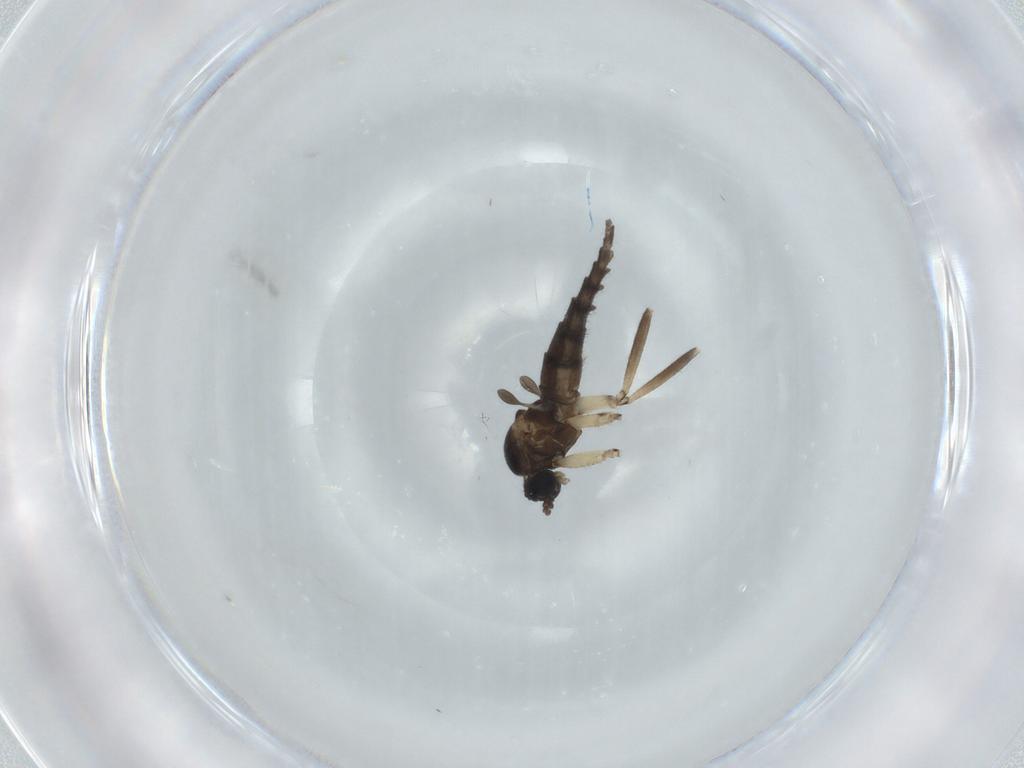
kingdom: Animalia
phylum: Arthropoda
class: Insecta
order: Diptera
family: Sciaridae
